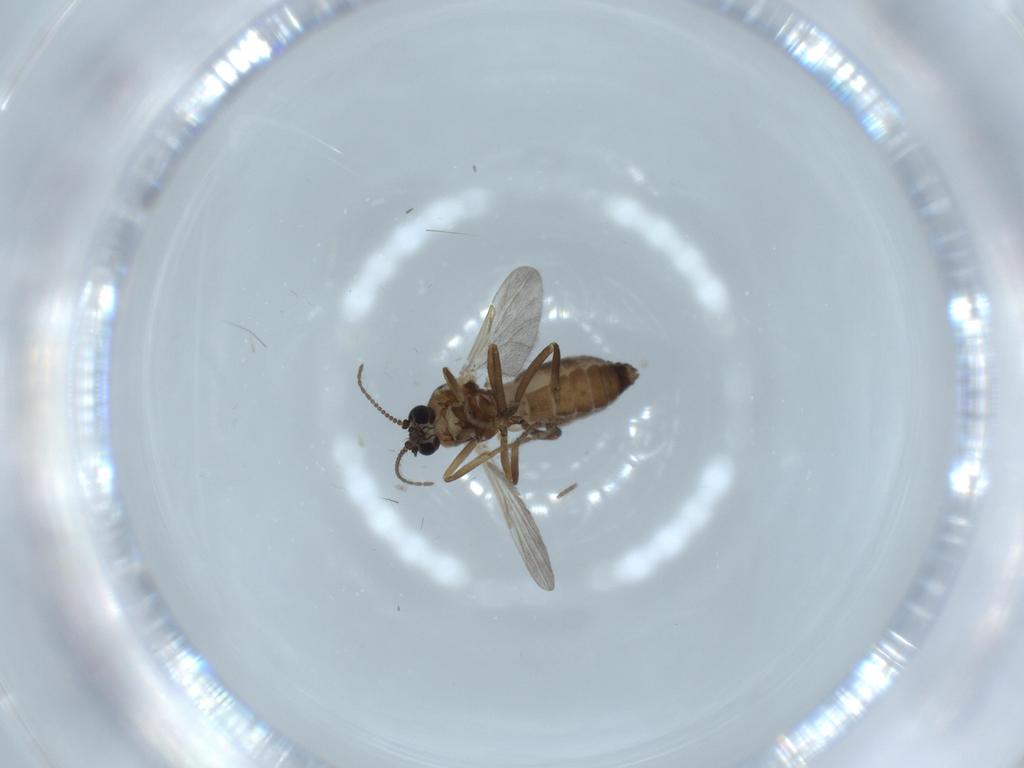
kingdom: Animalia
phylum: Arthropoda
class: Insecta
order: Diptera
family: Ceratopogonidae
